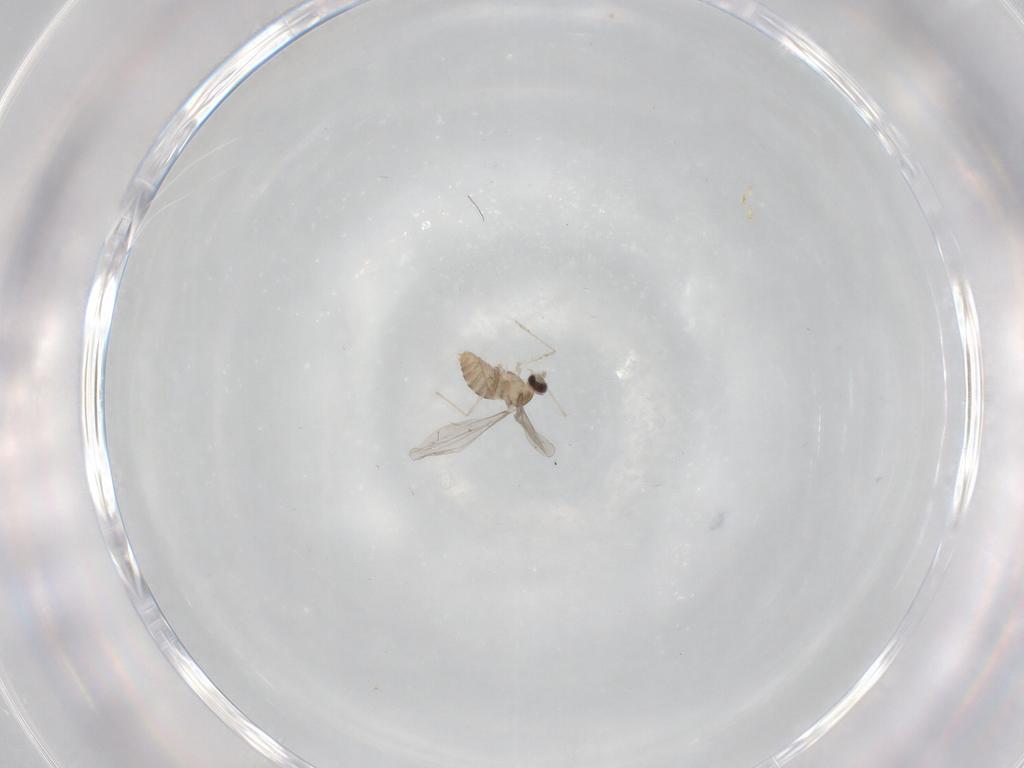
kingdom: Animalia
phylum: Arthropoda
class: Insecta
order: Diptera
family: Cecidomyiidae
